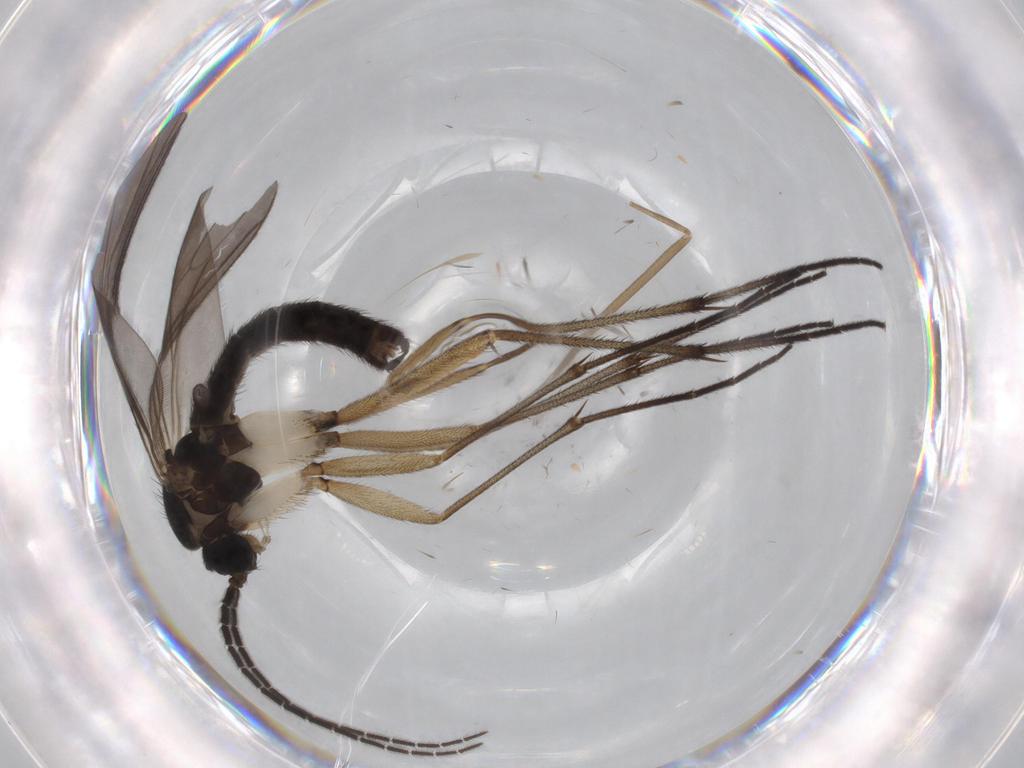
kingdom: Animalia
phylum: Arthropoda
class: Insecta
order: Diptera
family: Sciaridae
